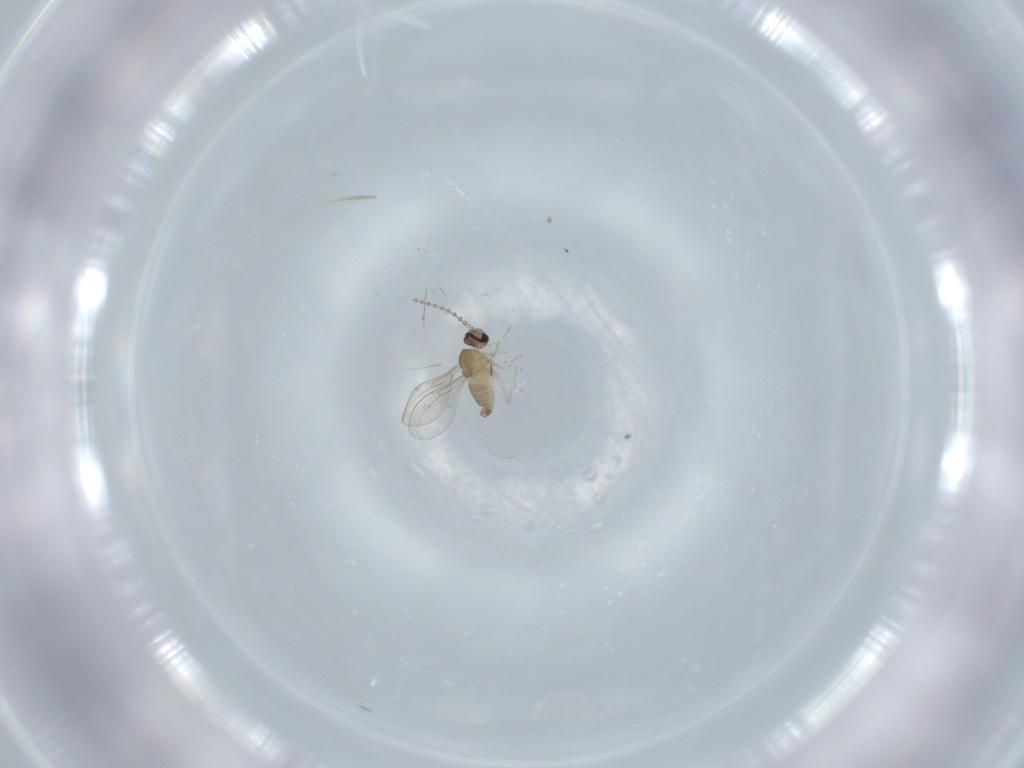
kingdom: Animalia
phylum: Arthropoda
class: Insecta
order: Diptera
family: Cecidomyiidae
